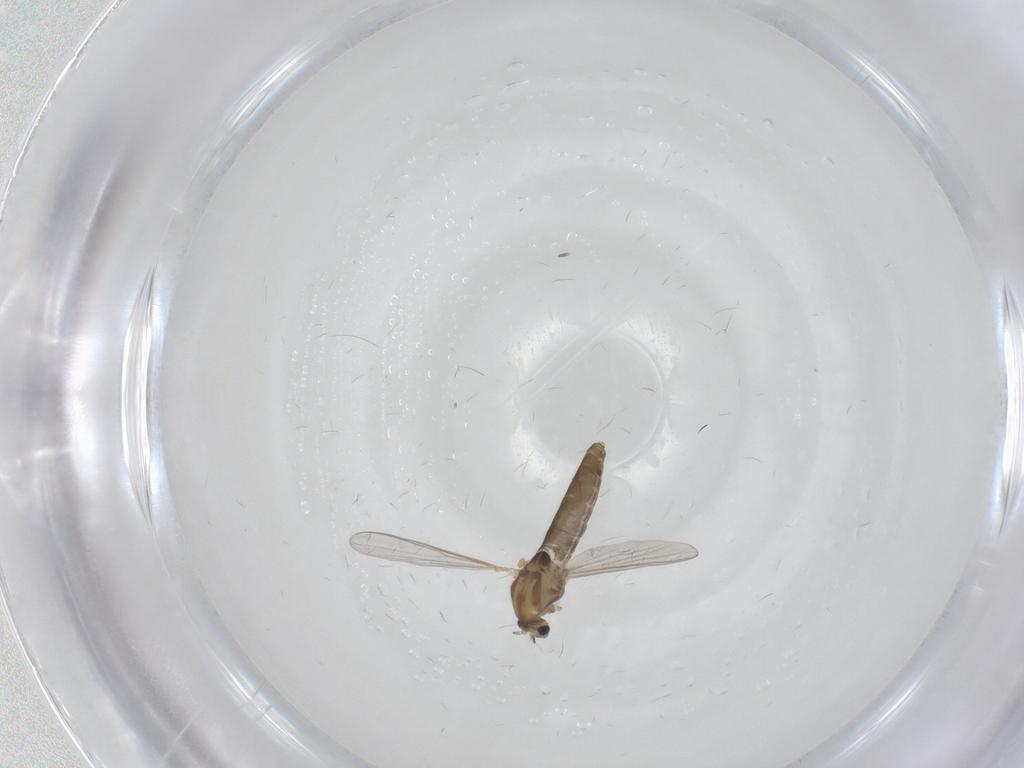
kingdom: Animalia
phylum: Arthropoda
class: Insecta
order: Diptera
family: Chironomidae
